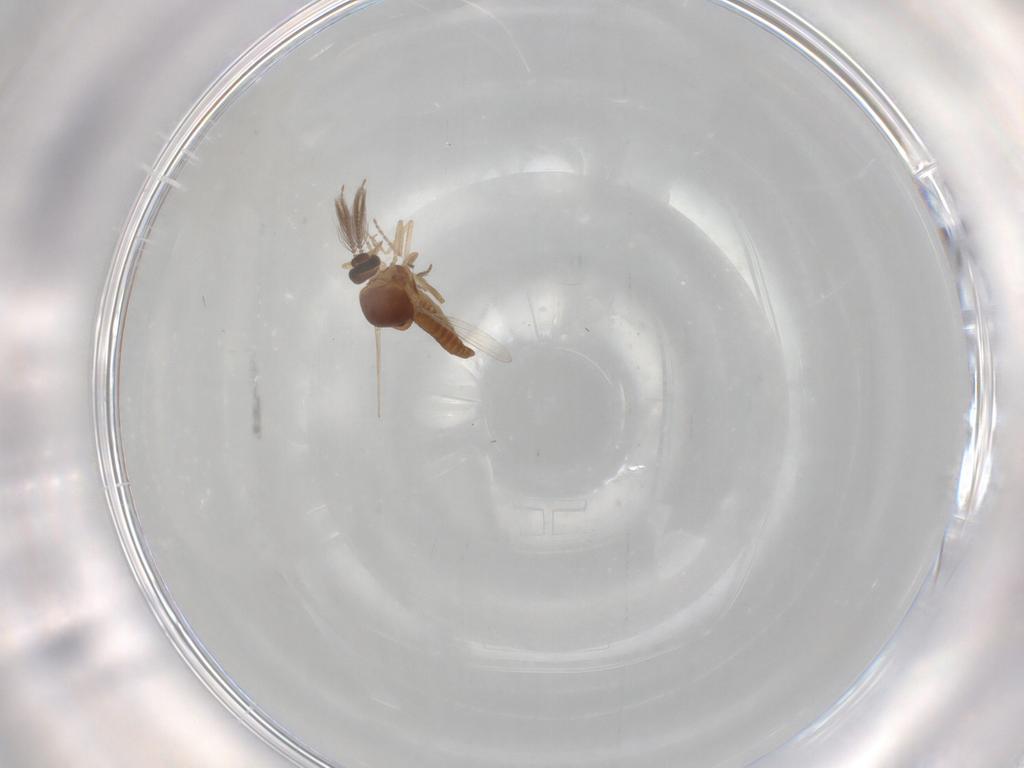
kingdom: Animalia
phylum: Arthropoda
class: Insecta
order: Diptera
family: Ceratopogonidae
